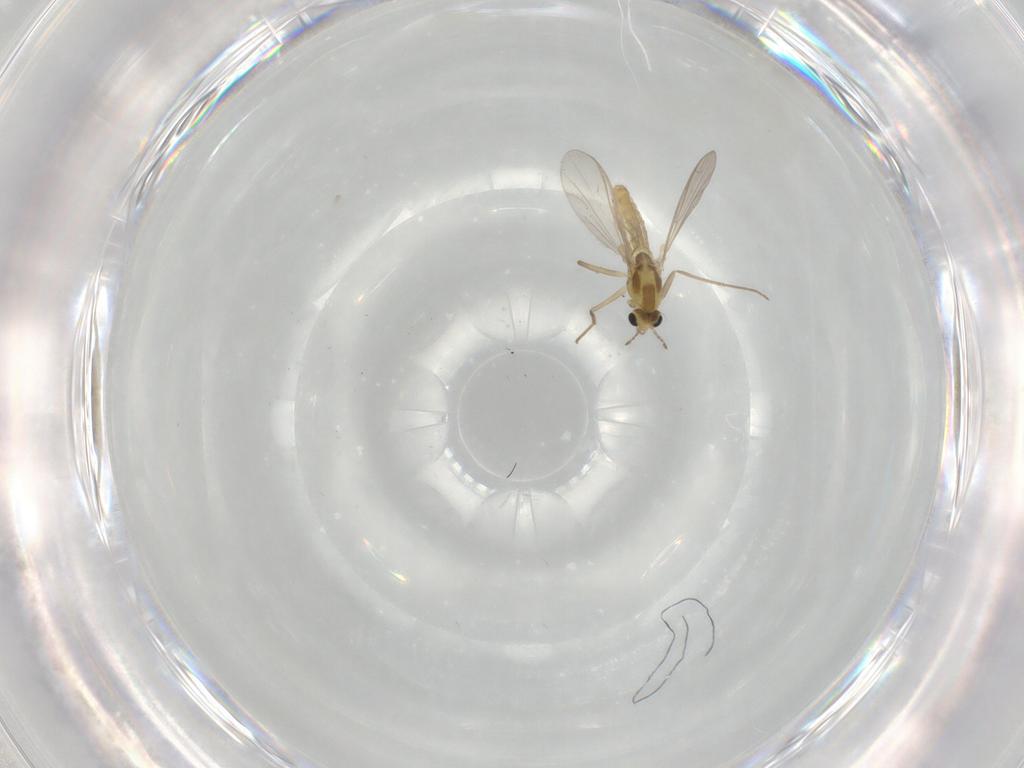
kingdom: Animalia
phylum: Arthropoda
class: Insecta
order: Diptera
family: Chironomidae
